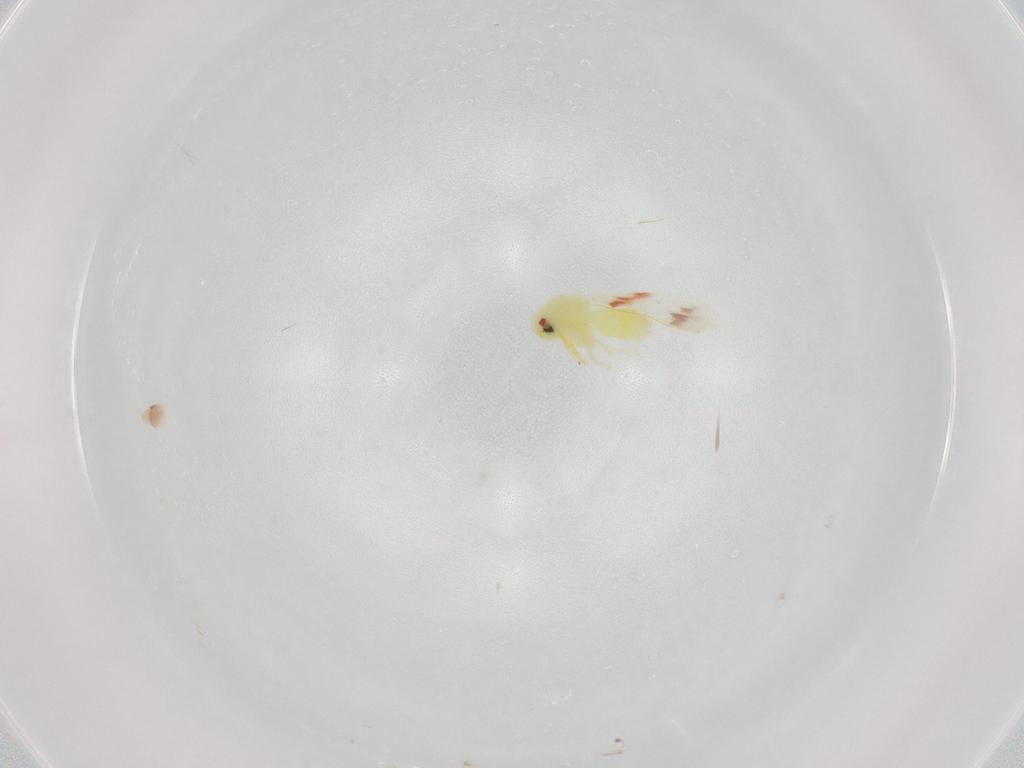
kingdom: Animalia
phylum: Arthropoda
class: Insecta
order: Hemiptera
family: Aleyrodidae
